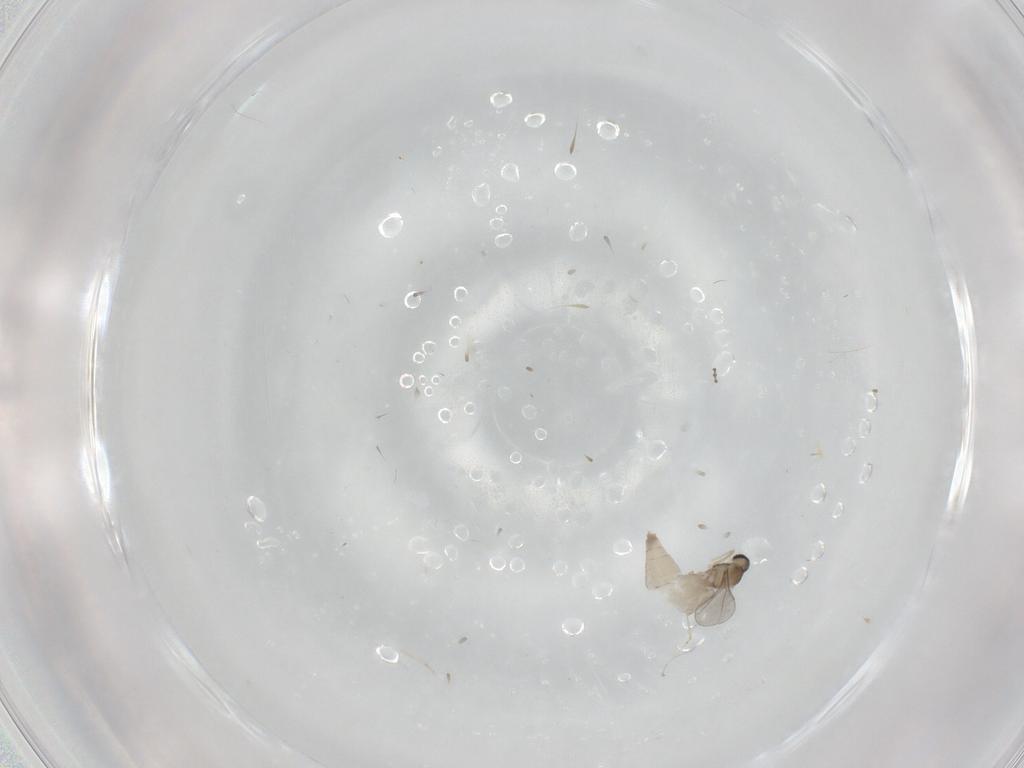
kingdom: Animalia
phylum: Arthropoda
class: Insecta
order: Diptera
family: Cecidomyiidae
